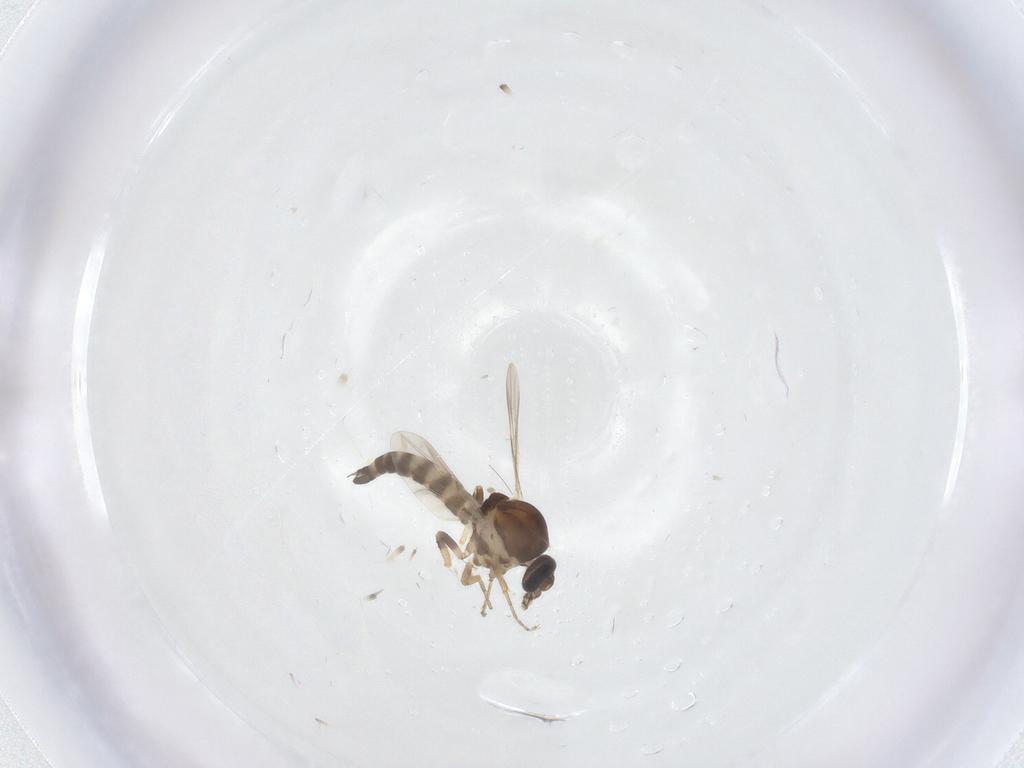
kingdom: Animalia
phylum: Arthropoda
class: Insecta
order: Diptera
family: Ceratopogonidae
